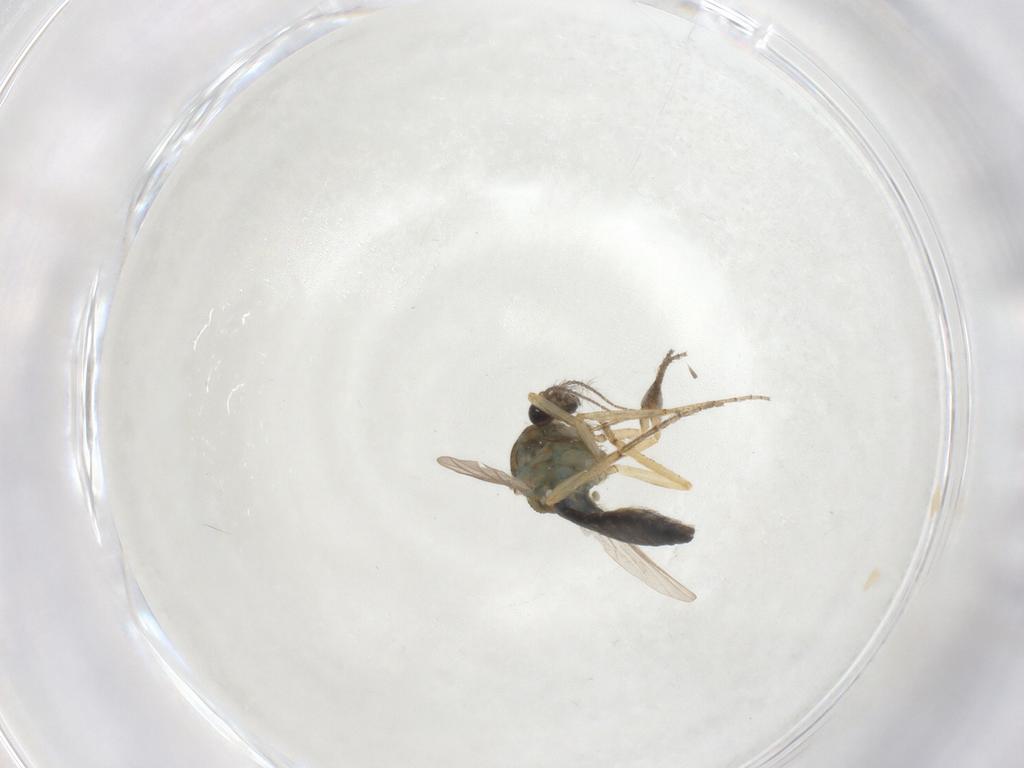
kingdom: Animalia
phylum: Arthropoda
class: Insecta
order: Diptera
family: Ceratopogonidae
